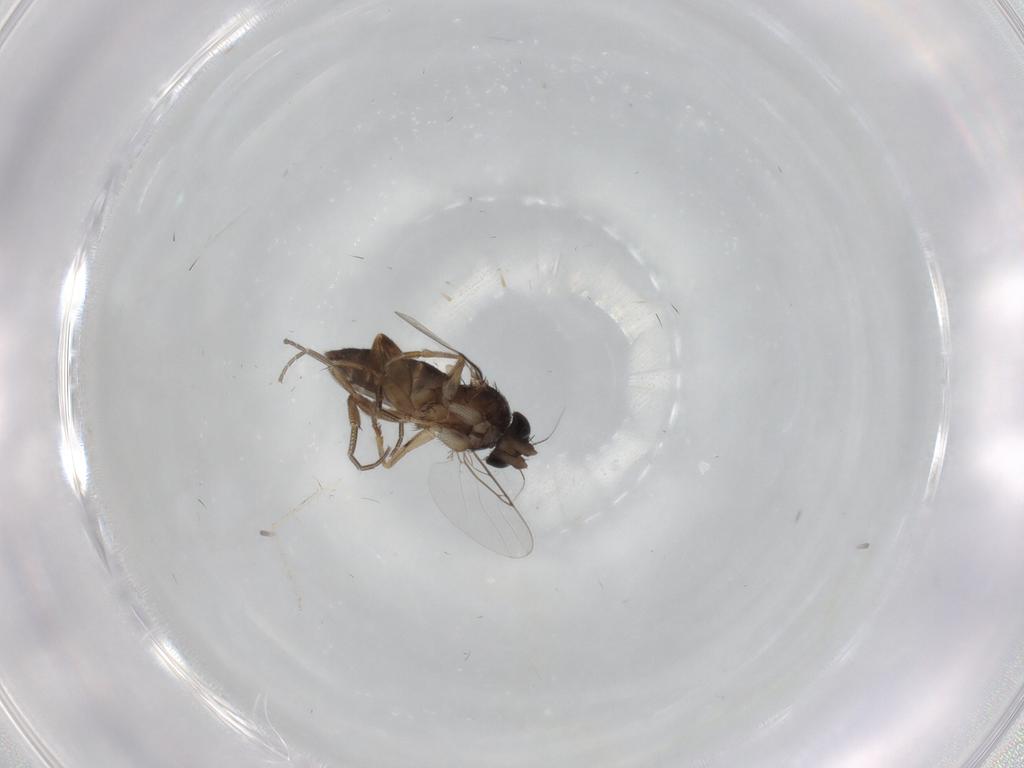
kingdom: Animalia
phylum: Arthropoda
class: Insecta
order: Diptera
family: Phoridae
